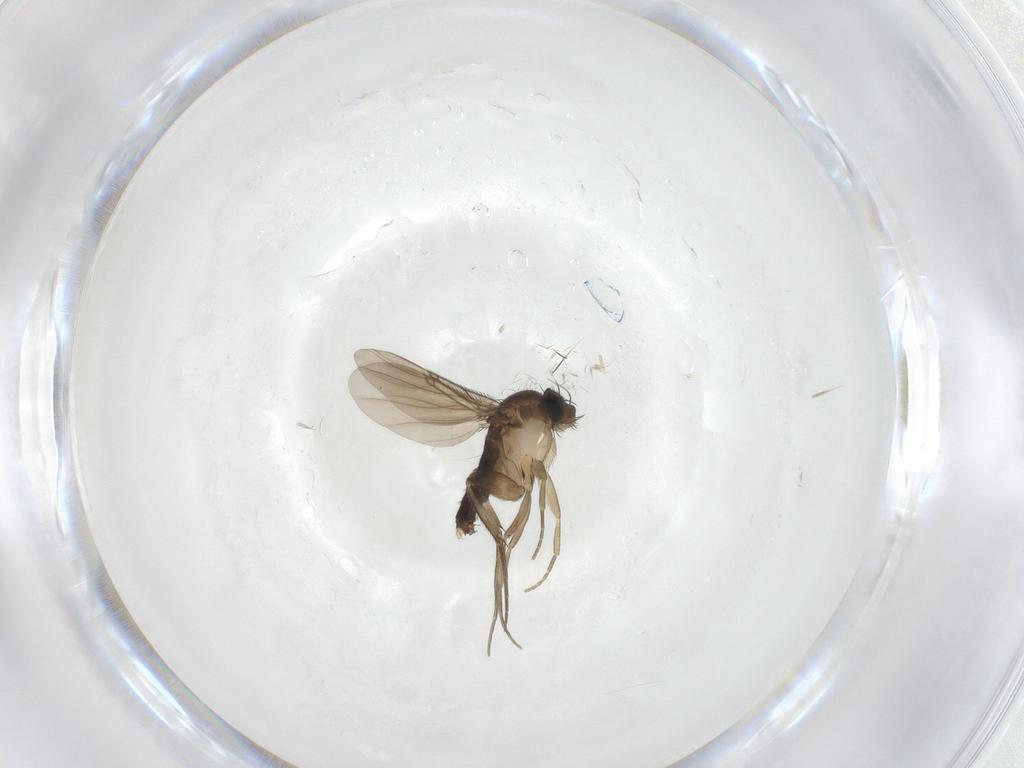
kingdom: Animalia
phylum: Arthropoda
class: Insecta
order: Diptera
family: Phoridae
